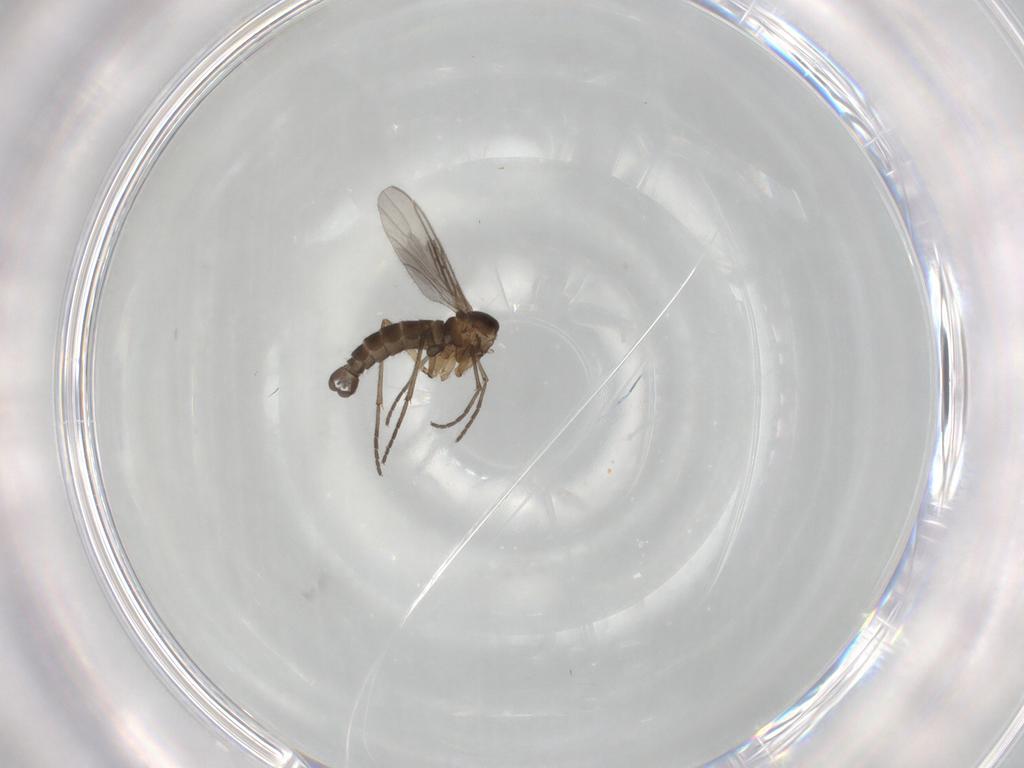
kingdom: Animalia
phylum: Arthropoda
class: Insecta
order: Diptera
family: Sciaridae
